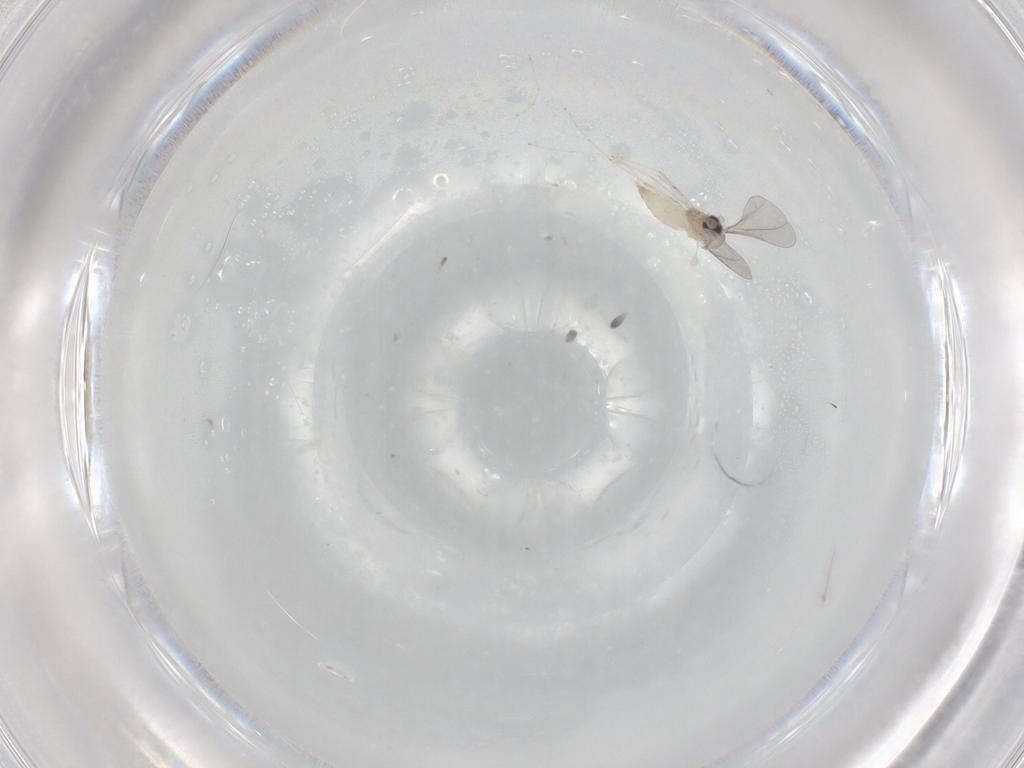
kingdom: Animalia
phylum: Arthropoda
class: Insecta
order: Diptera
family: Cecidomyiidae
